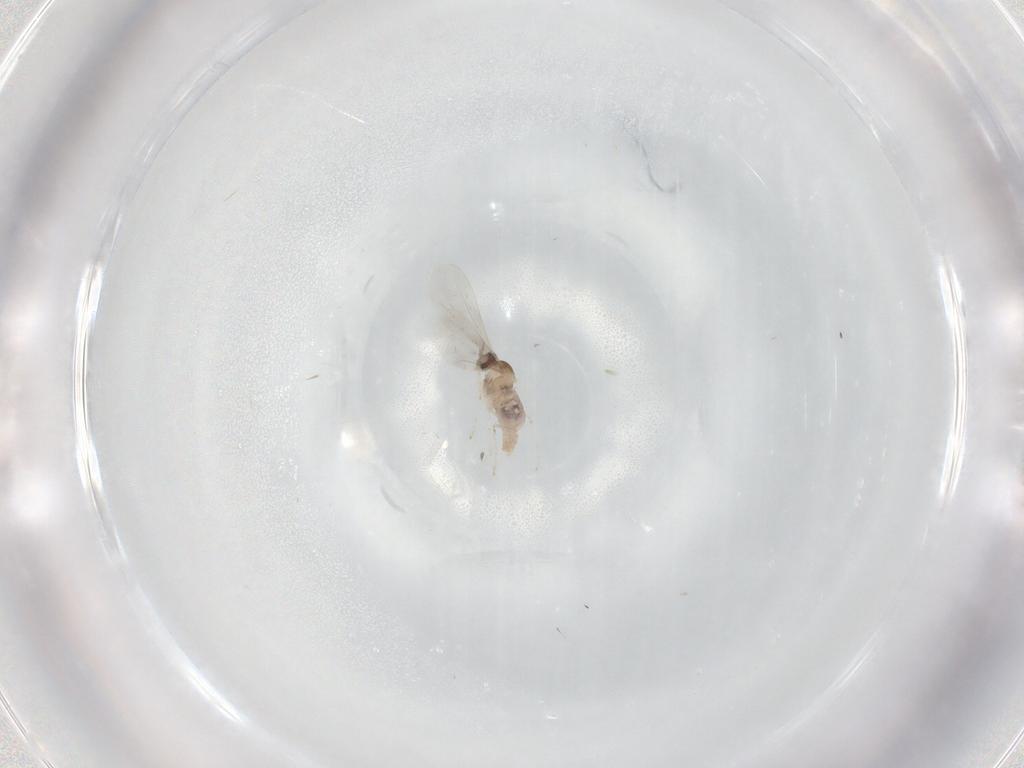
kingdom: Animalia
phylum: Arthropoda
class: Insecta
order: Diptera
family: Cecidomyiidae
